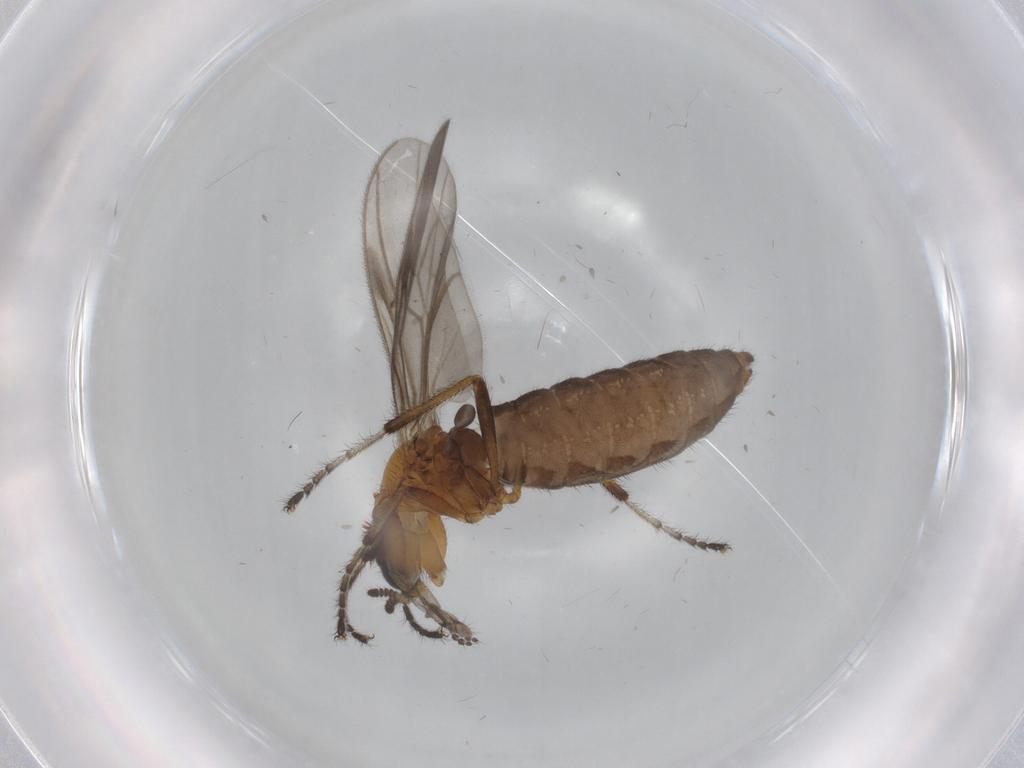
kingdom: Animalia
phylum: Arthropoda
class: Insecta
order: Diptera
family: Bibionidae
